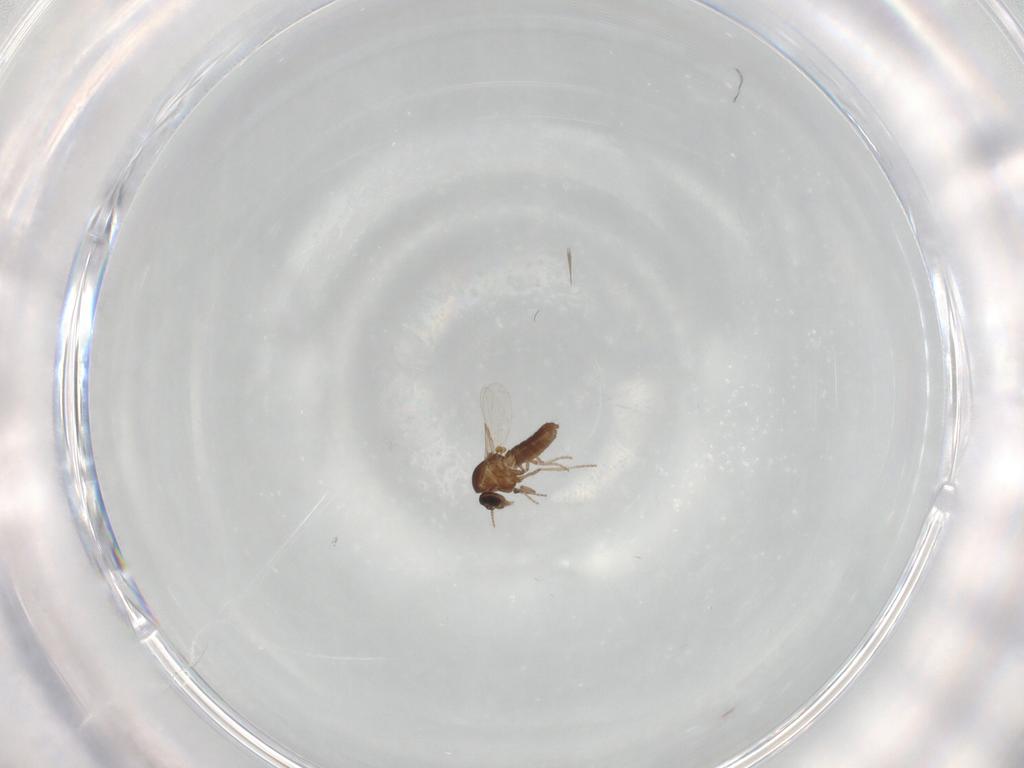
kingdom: Animalia
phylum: Arthropoda
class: Insecta
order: Diptera
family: Ceratopogonidae
